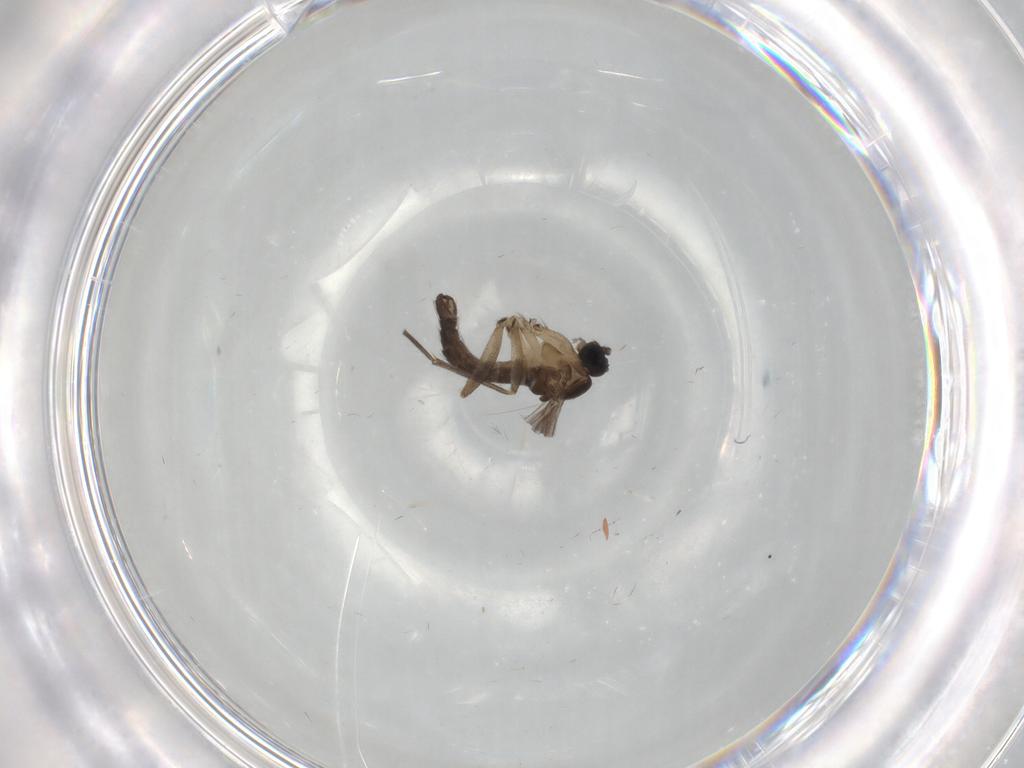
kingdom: Animalia
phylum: Arthropoda
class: Insecta
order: Diptera
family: Sciaridae
